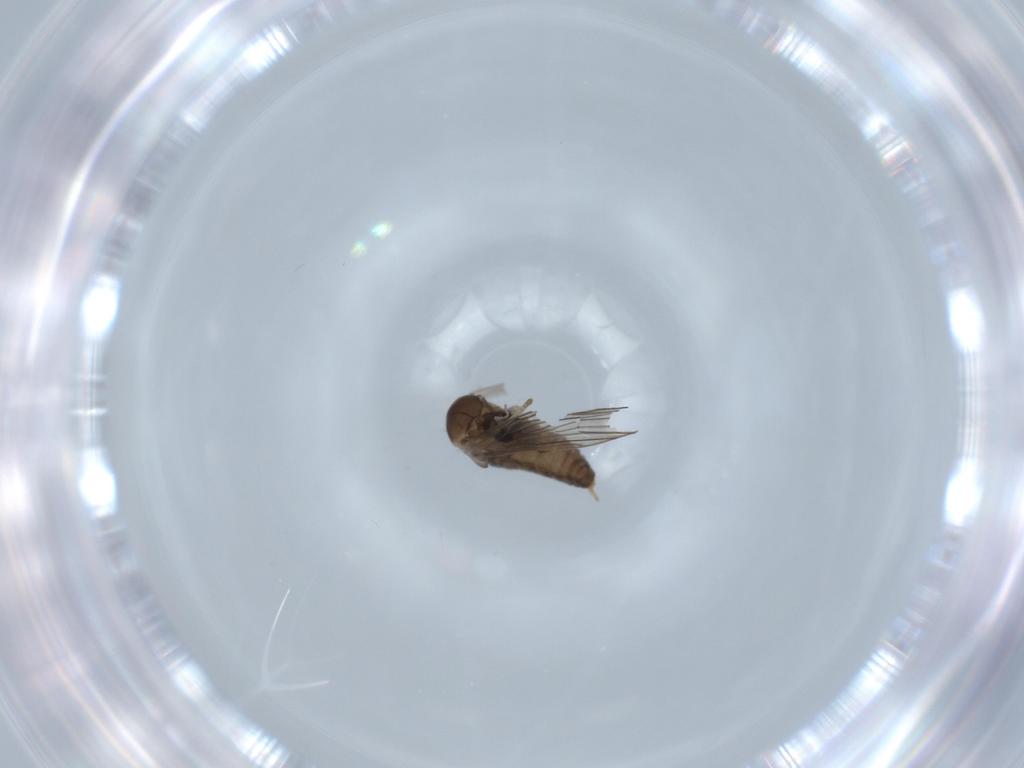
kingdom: Animalia
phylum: Arthropoda
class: Insecta
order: Diptera
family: Psychodidae
